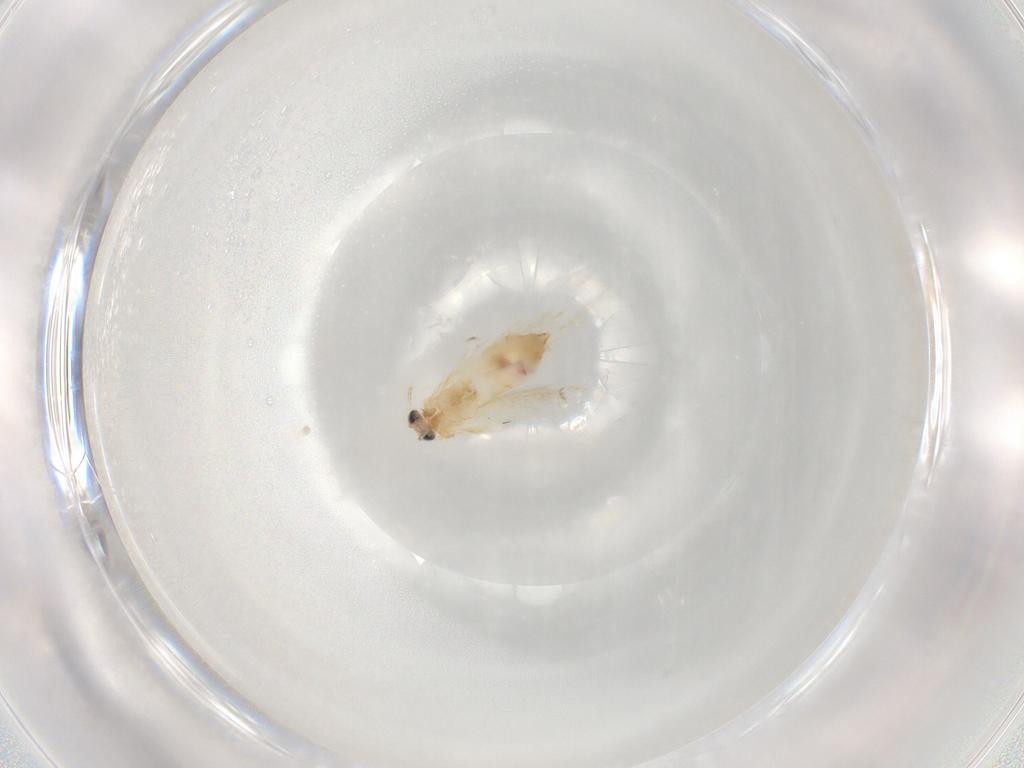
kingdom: Animalia
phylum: Arthropoda
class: Insecta
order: Lepidoptera
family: Nepticulidae
